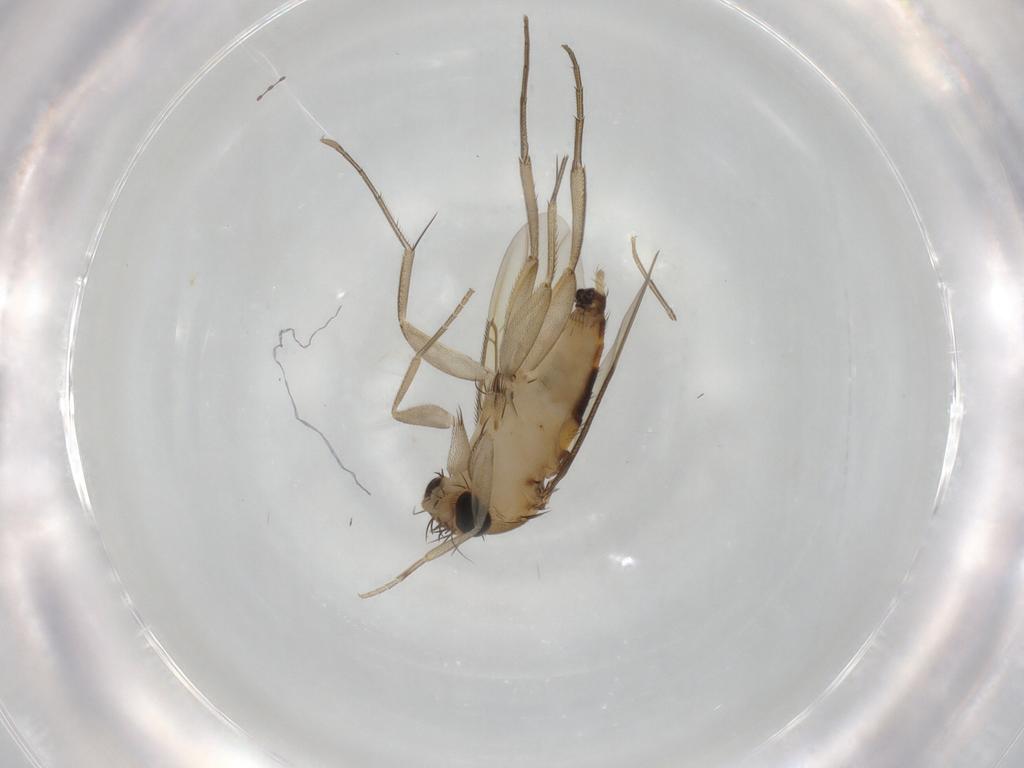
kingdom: Animalia
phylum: Arthropoda
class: Insecta
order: Diptera
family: Phoridae
